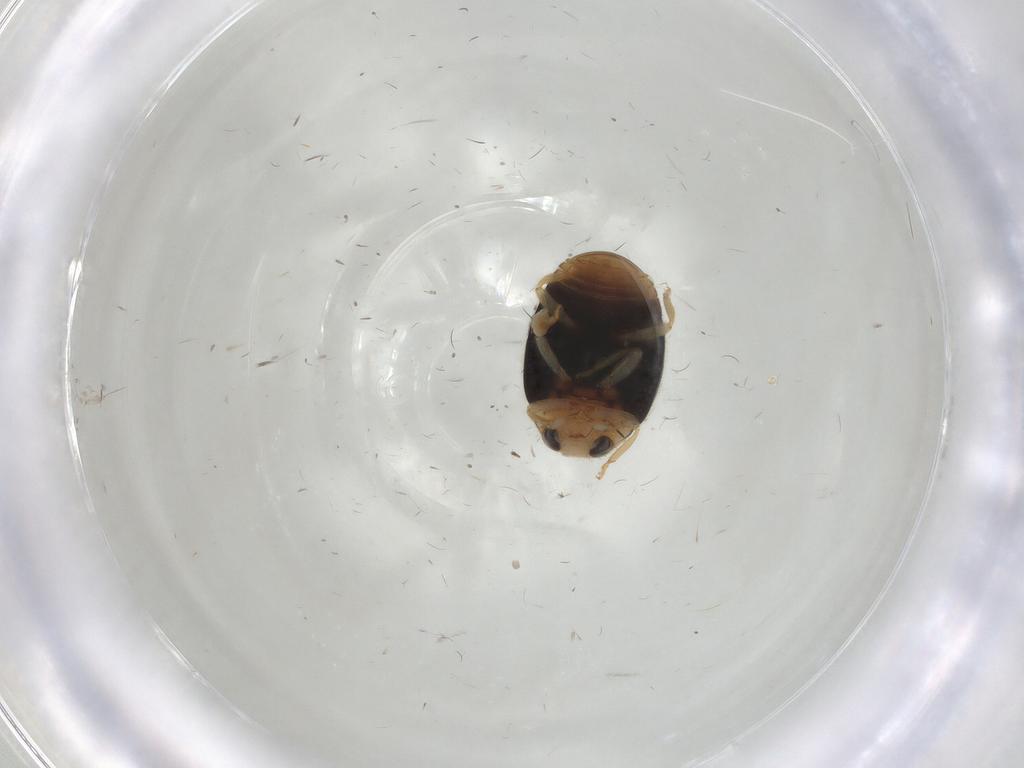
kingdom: Animalia
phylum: Arthropoda
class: Insecta
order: Coleoptera
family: Coccinellidae
